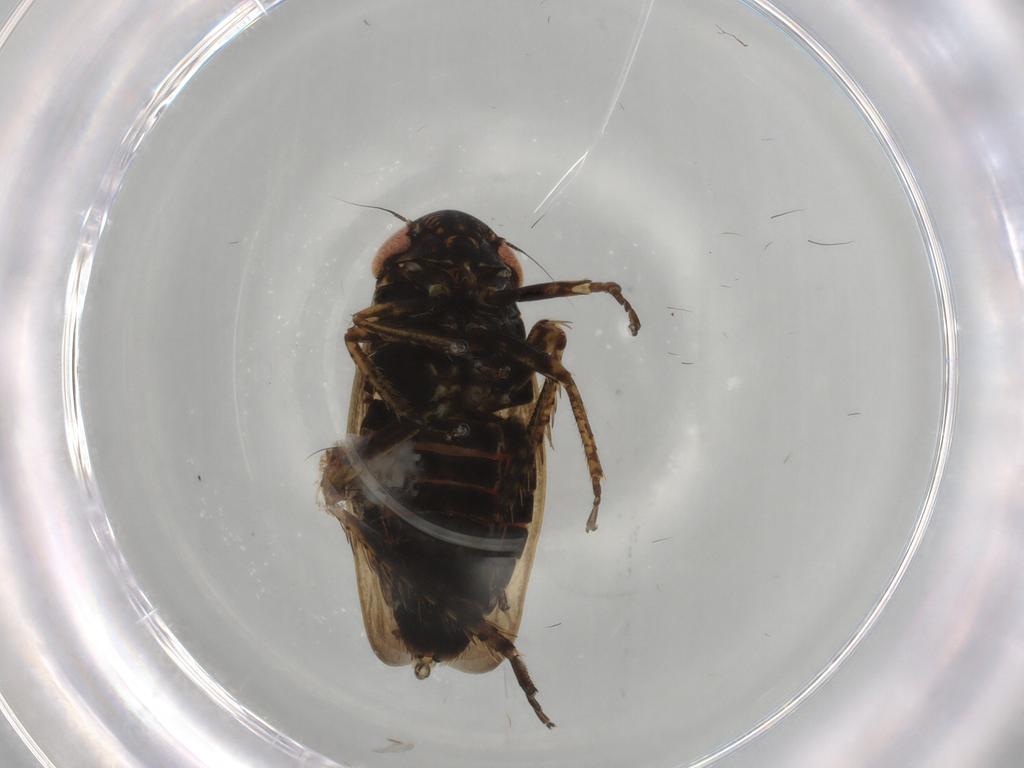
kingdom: Animalia
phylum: Arthropoda
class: Insecta
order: Hemiptera
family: Cicadellidae
